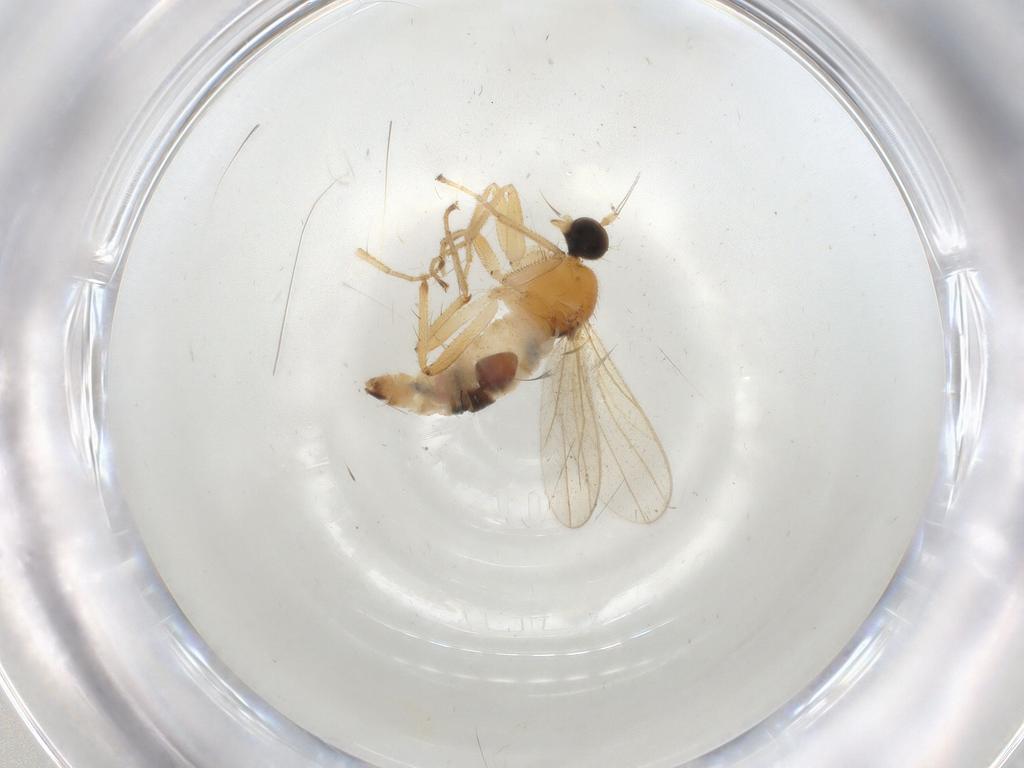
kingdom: Animalia
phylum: Arthropoda
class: Insecta
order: Diptera
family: Hybotidae
